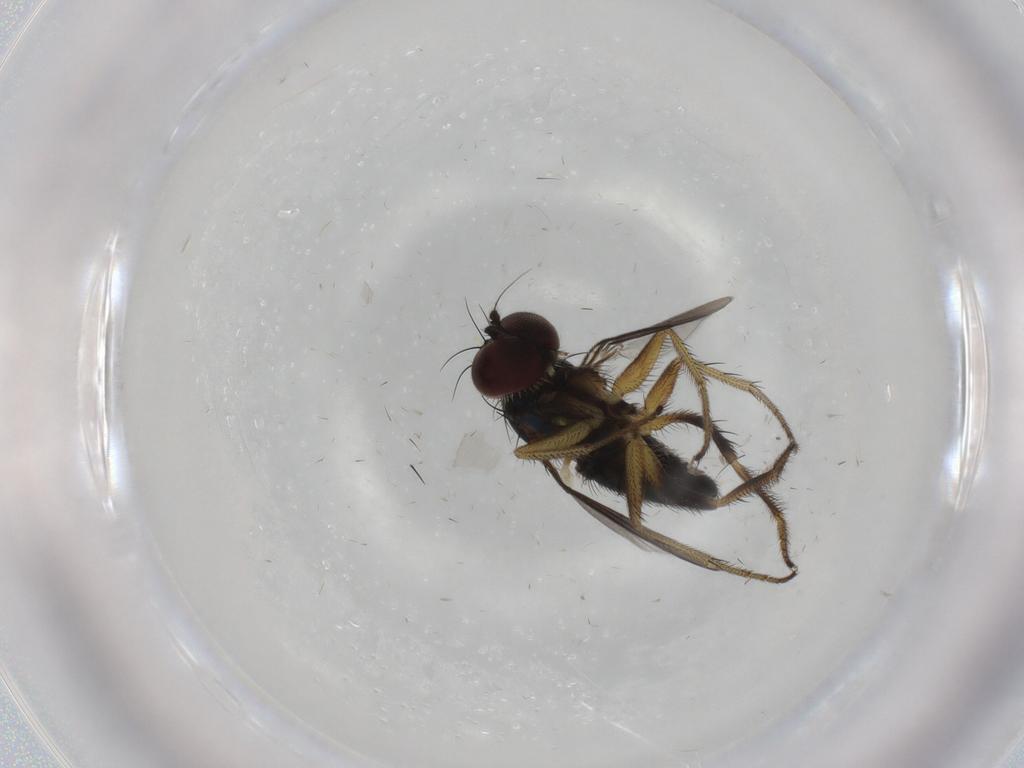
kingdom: Animalia
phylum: Arthropoda
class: Insecta
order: Diptera
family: Dolichopodidae
